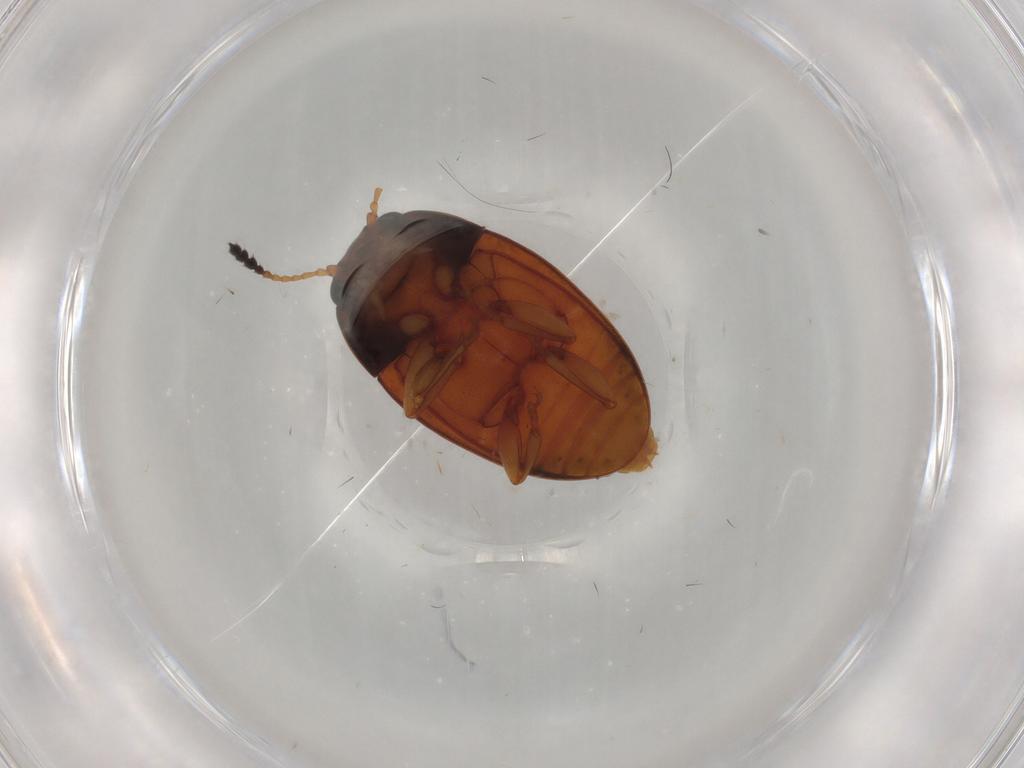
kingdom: Animalia
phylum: Arthropoda
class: Insecta
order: Coleoptera
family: Erotylidae
